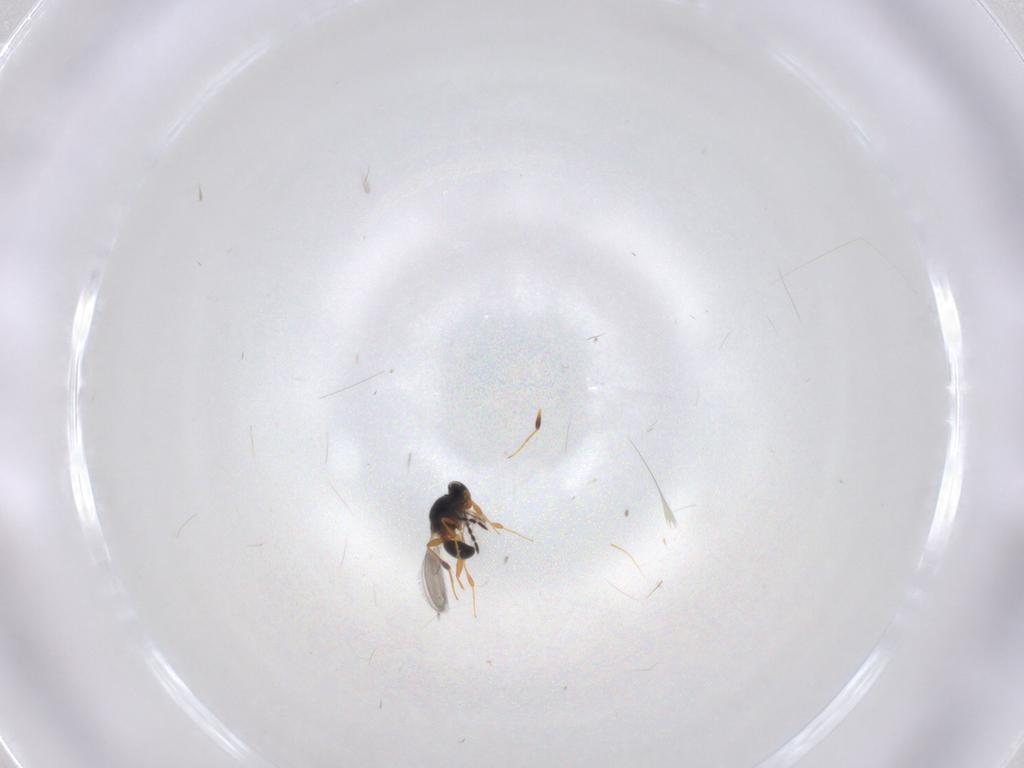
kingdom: Animalia
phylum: Arthropoda
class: Insecta
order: Hymenoptera
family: Platygastridae
